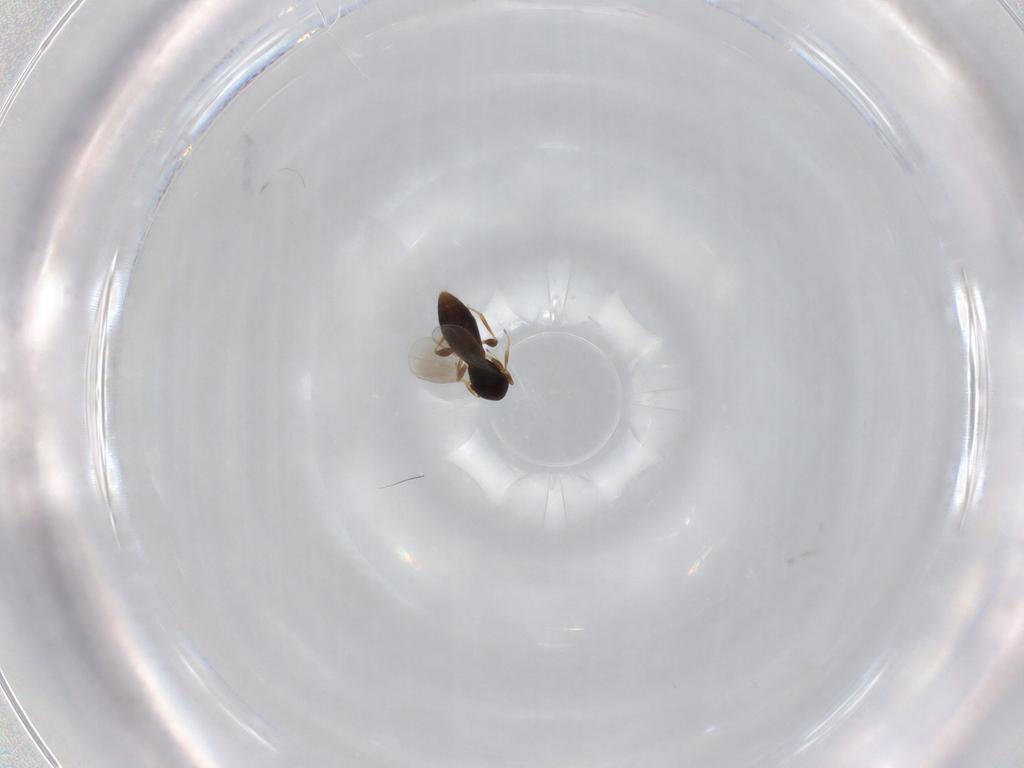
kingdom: Animalia
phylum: Arthropoda
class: Insecta
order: Hymenoptera
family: Platygastridae
